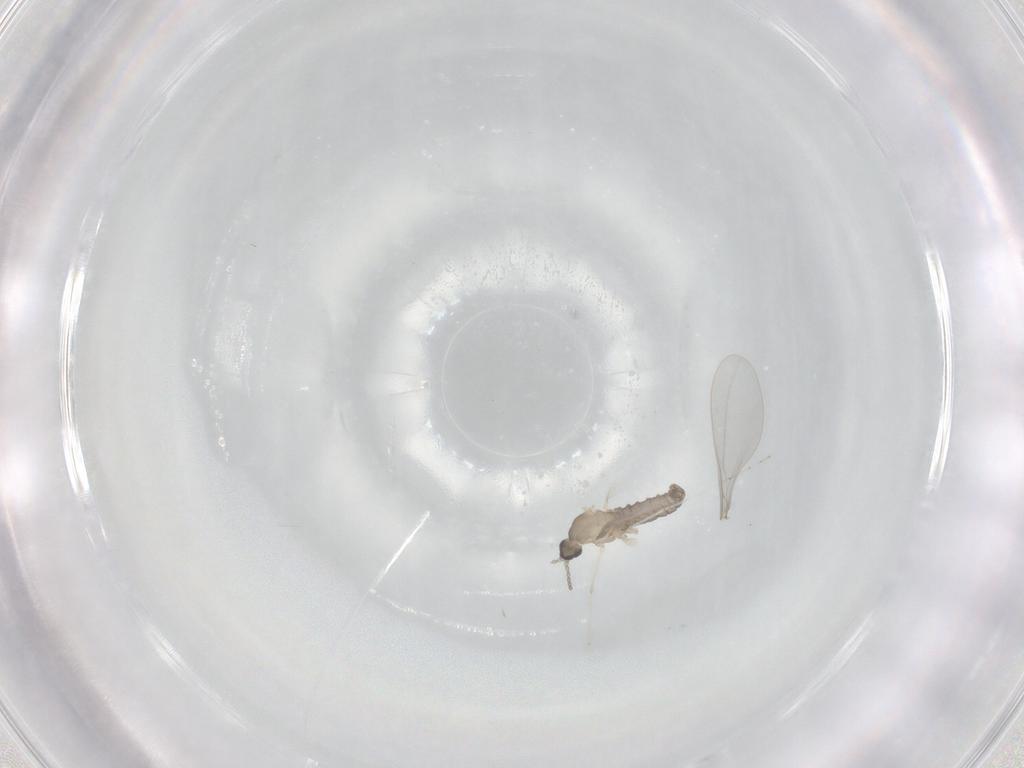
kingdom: Animalia
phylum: Arthropoda
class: Insecta
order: Diptera
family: Cecidomyiidae
